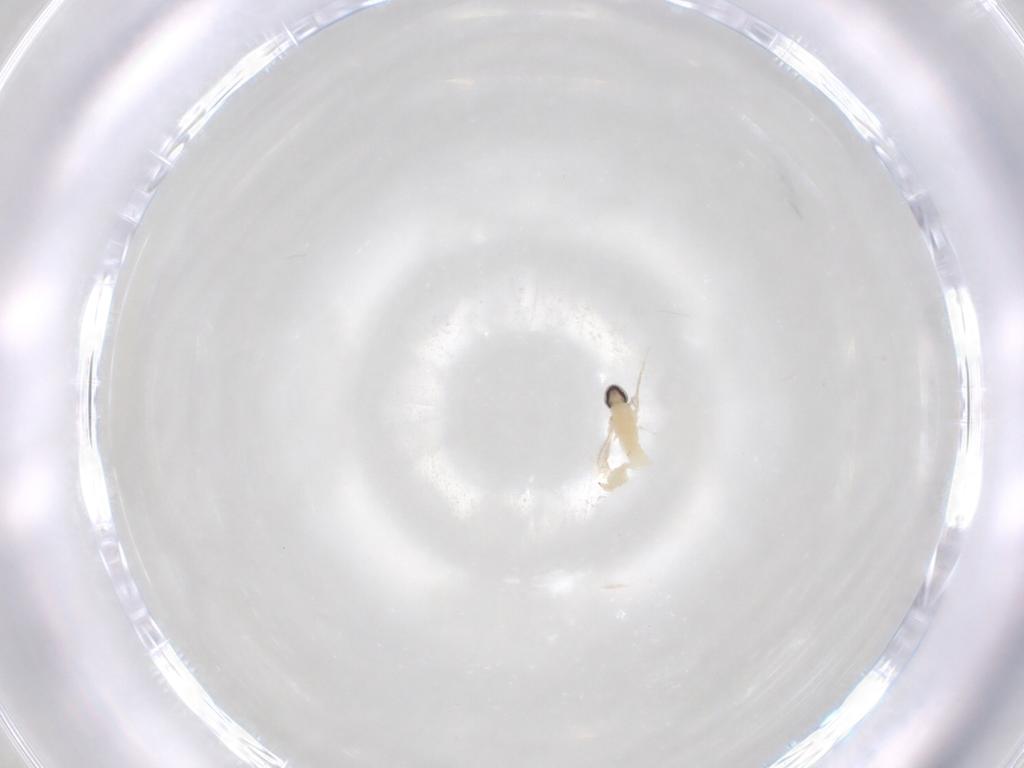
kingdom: Animalia
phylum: Arthropoda
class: Insecta
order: Diptera
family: Cecidomyiidae
